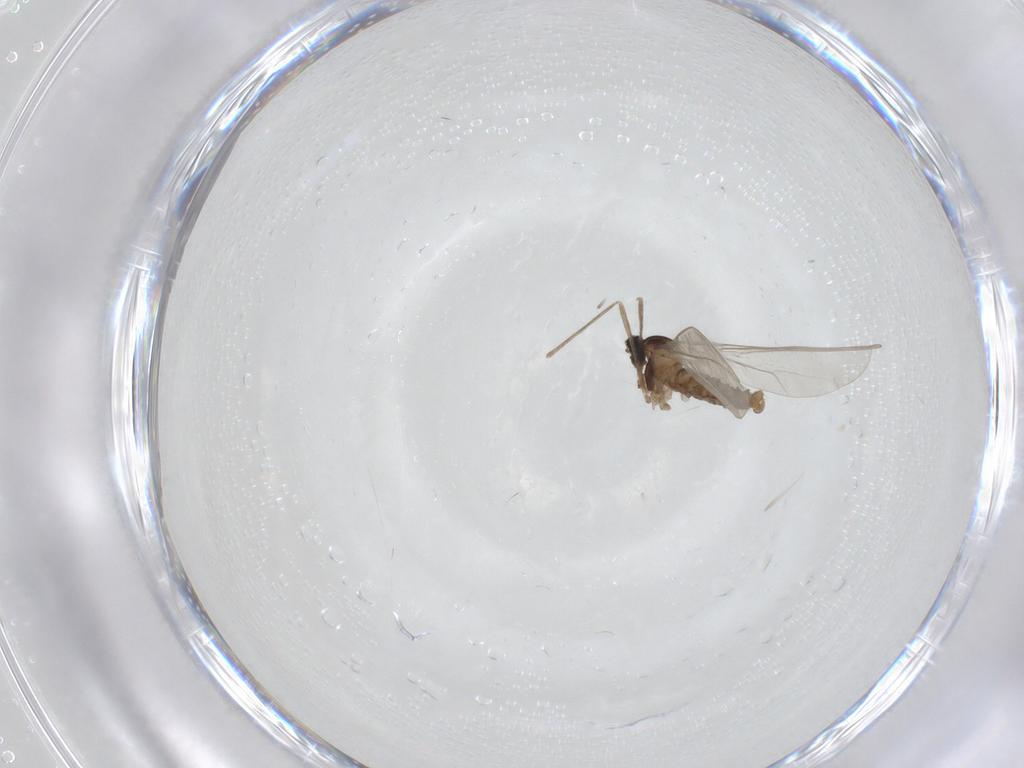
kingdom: Animalia
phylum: Arthropoda
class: Insecta
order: Diptera
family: Cecidomyiidae
